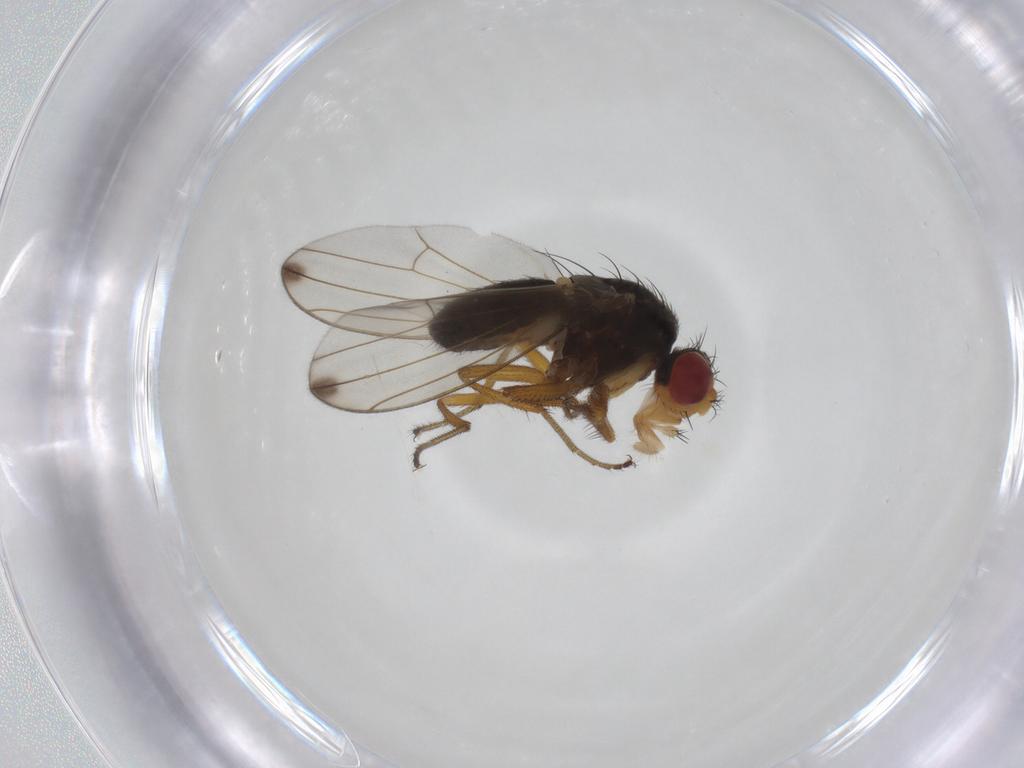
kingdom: Animalia
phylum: Arthropoda
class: Insecta
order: Diptera
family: Drosophilidae
